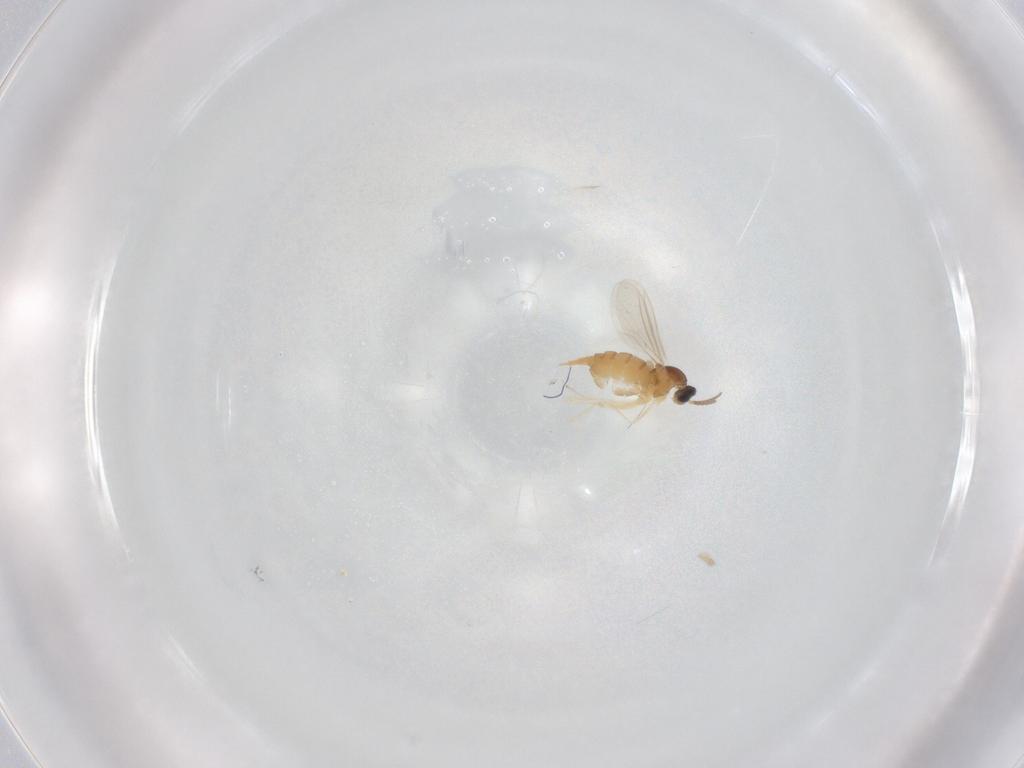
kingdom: Animalia
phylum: Arthropoda
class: Insecta
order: Diptera
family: Cecidomyiidae
